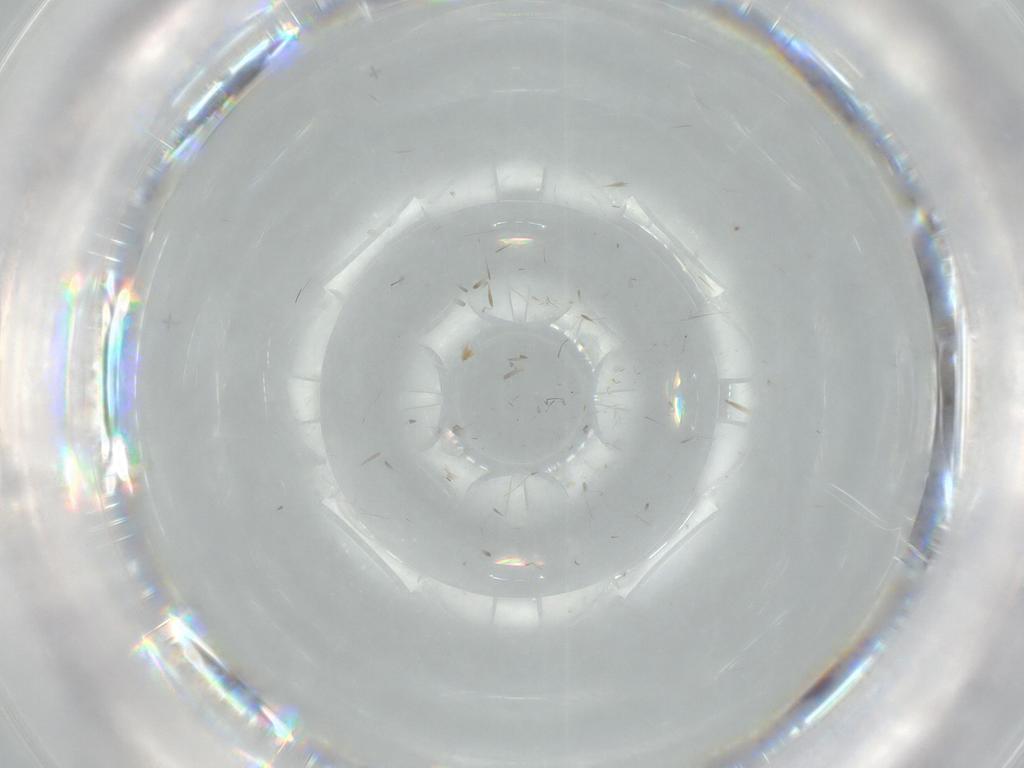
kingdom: Animalia
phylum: Arthropoda
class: Insecta
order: Diptera
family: Cecidomyiidae
